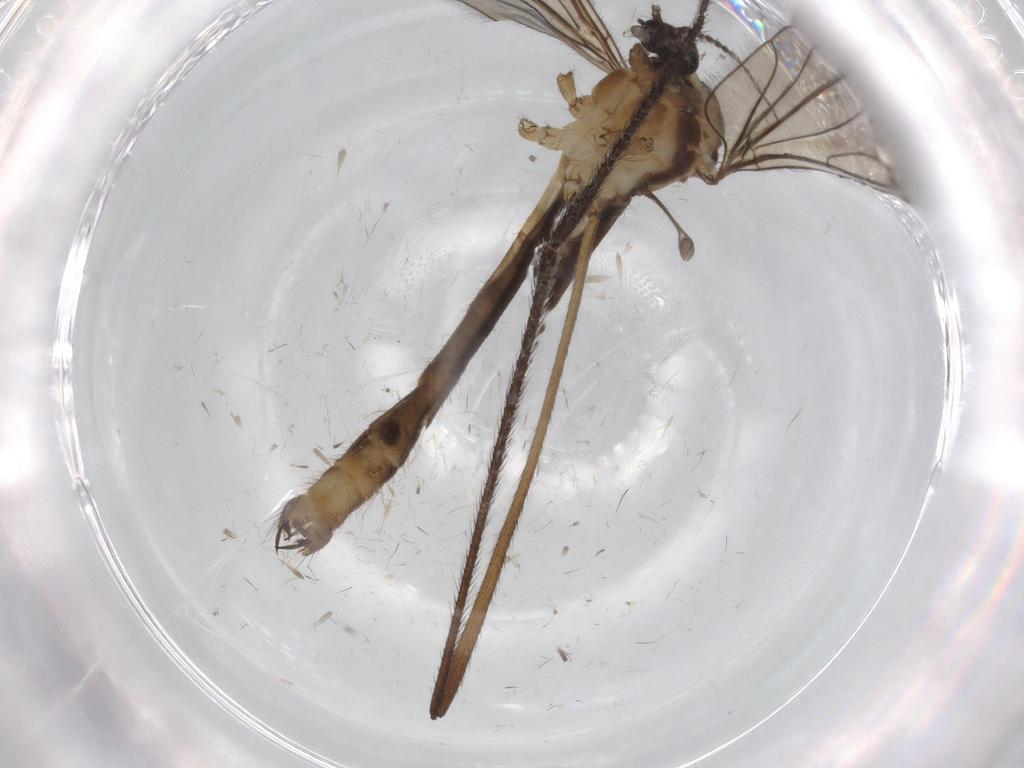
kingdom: Animalia
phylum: Arthropoda
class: Insecta
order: Diptera
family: Limoniidae
